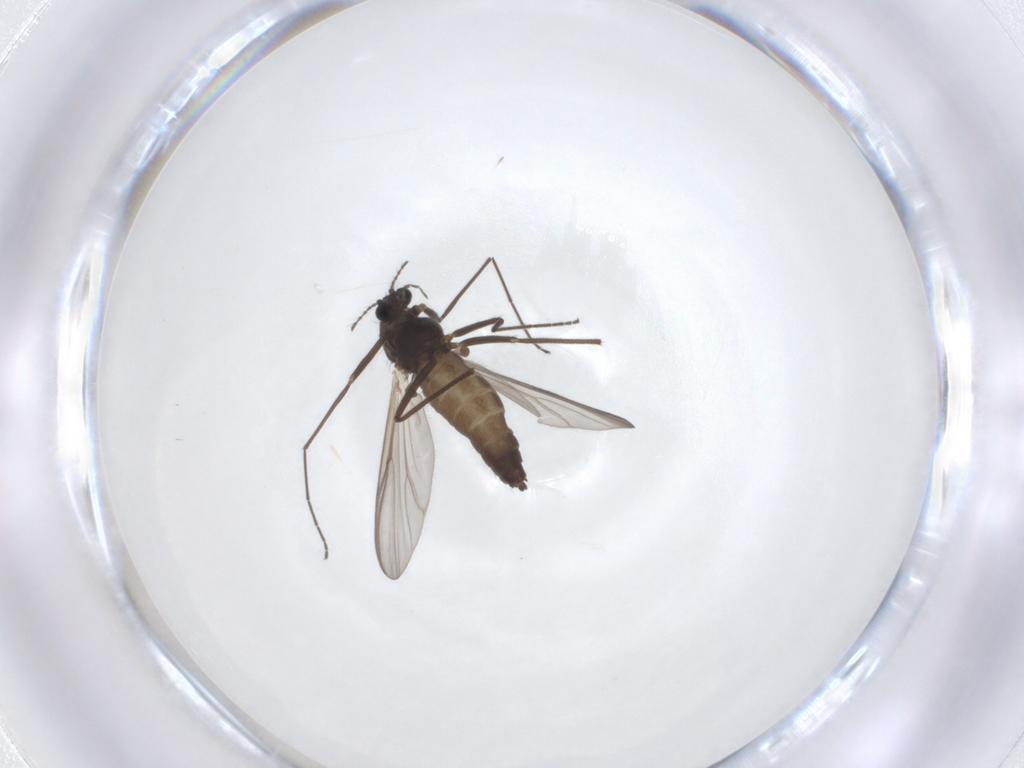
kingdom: Animalia
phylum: Arthropoda
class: Insecta
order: Diptera
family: Chironomidae
